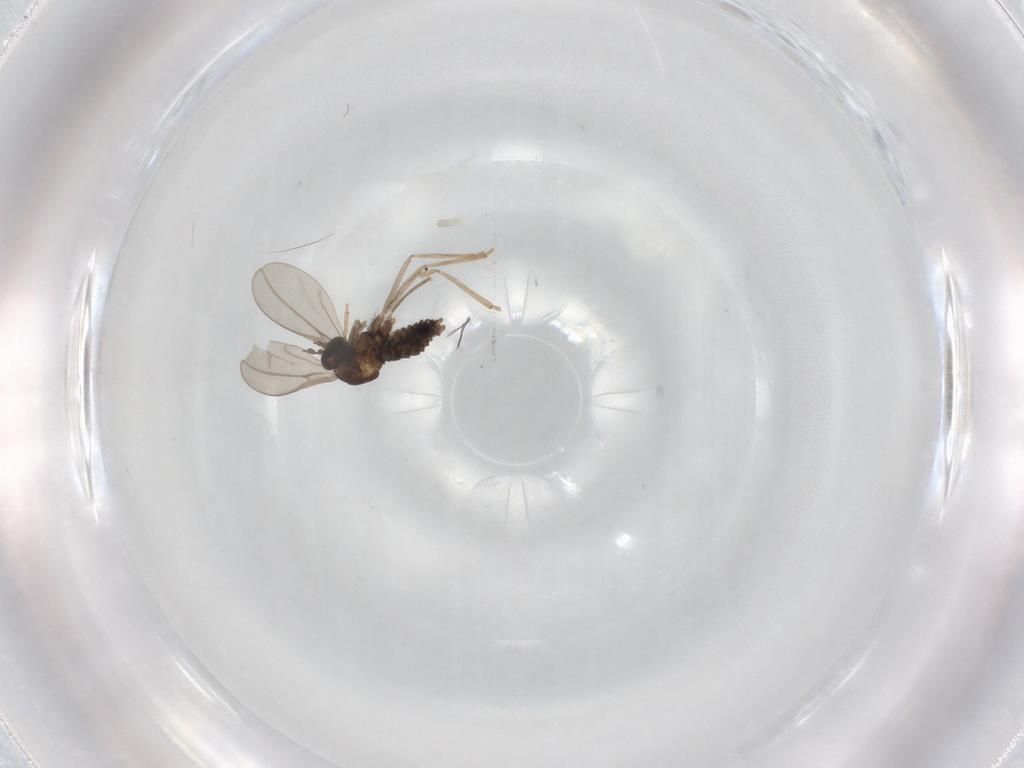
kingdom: Animalia
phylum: Arthropoda
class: Insecta
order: Diptera
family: Cecidomyiidae
